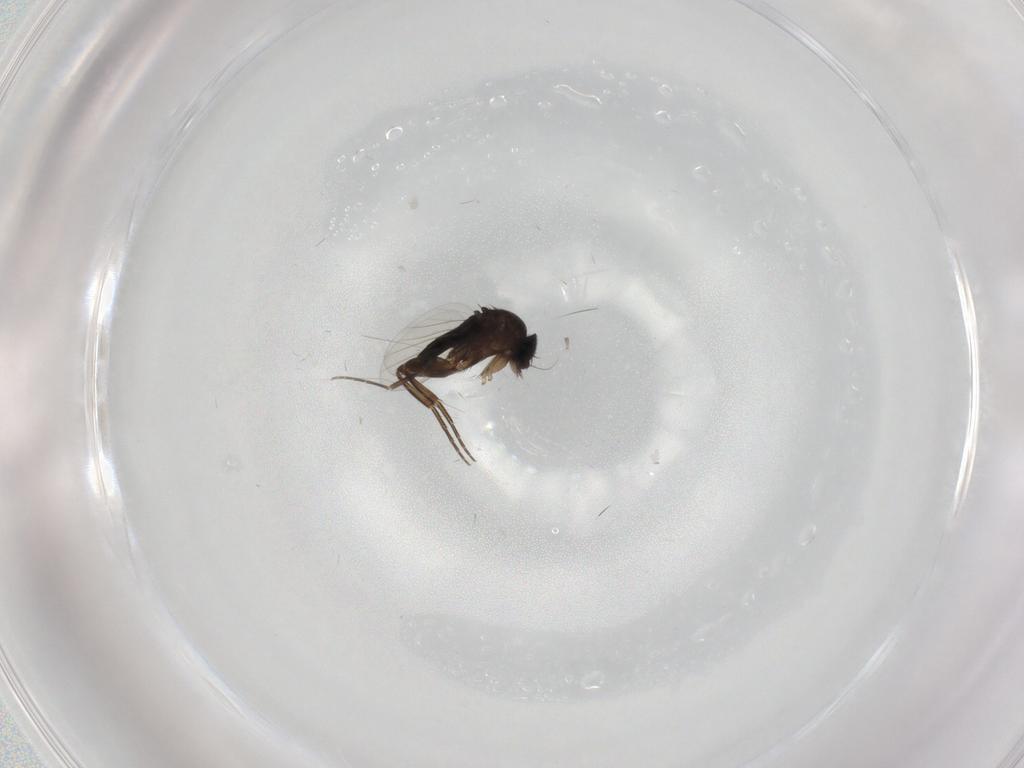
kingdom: Animalia
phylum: Arthropoda
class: Insecta
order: Diptera
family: Phoridae
